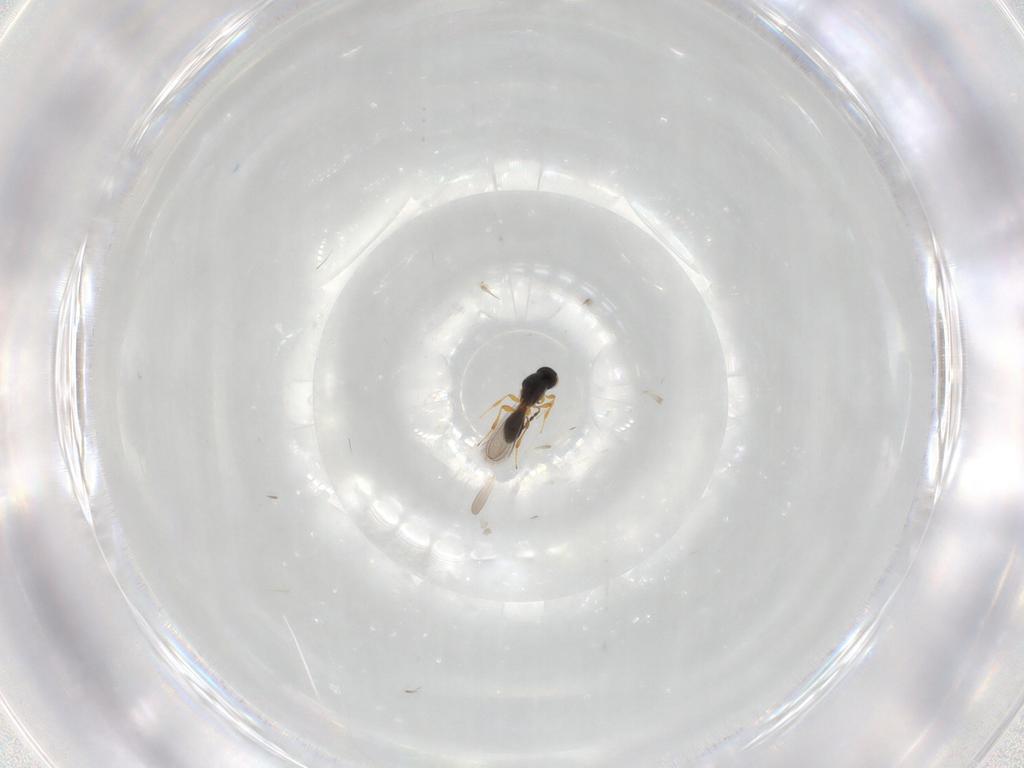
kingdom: Animalia
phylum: Arthropoda
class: Insecta
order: Hymenoptera
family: Platygastridae
